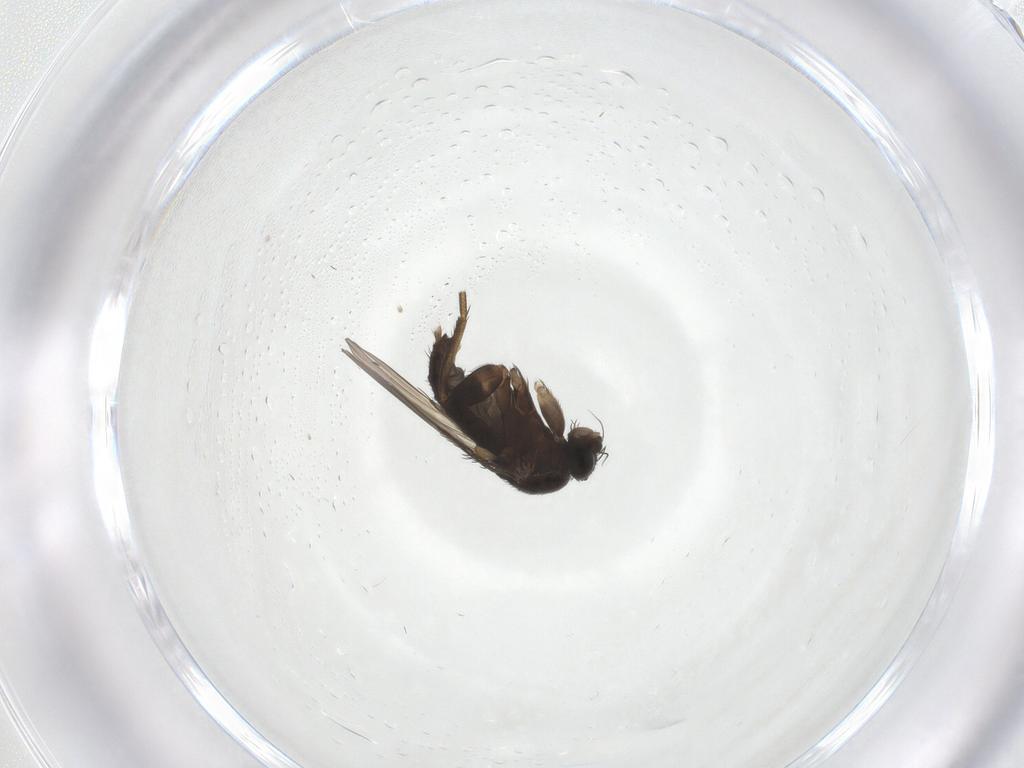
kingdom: Animalia
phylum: Arthropoda
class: Insecta
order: Diptera
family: Phoridae
